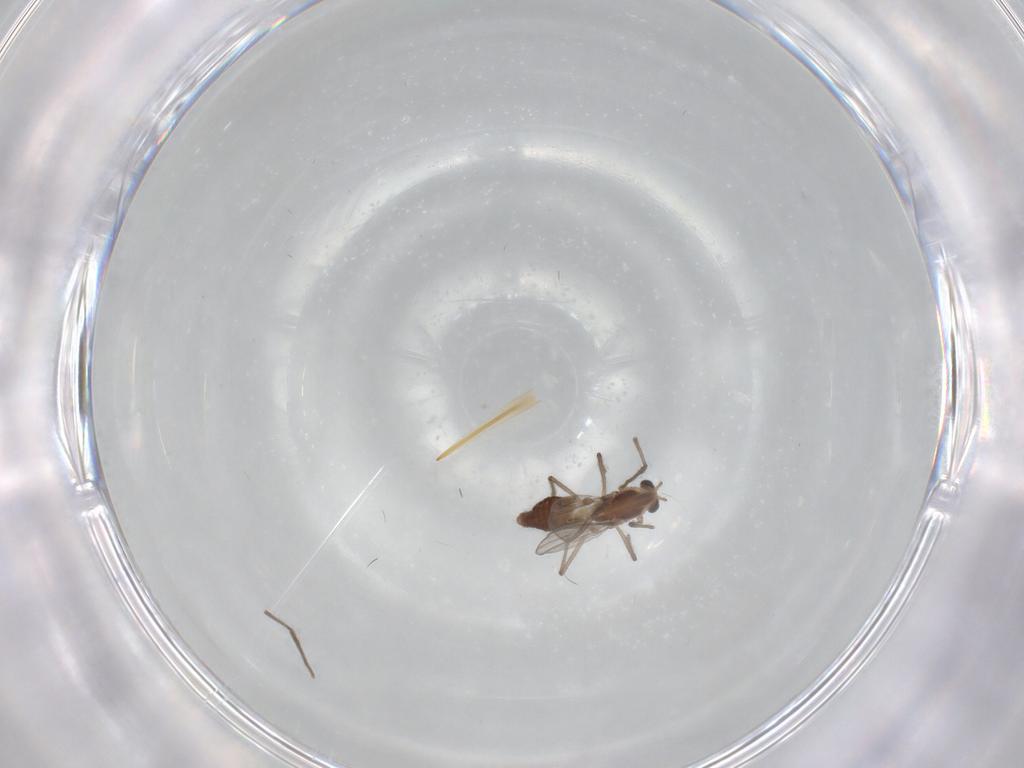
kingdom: Animalia
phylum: Arthropoda
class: Insecta
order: Diptera
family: Chironomidae
